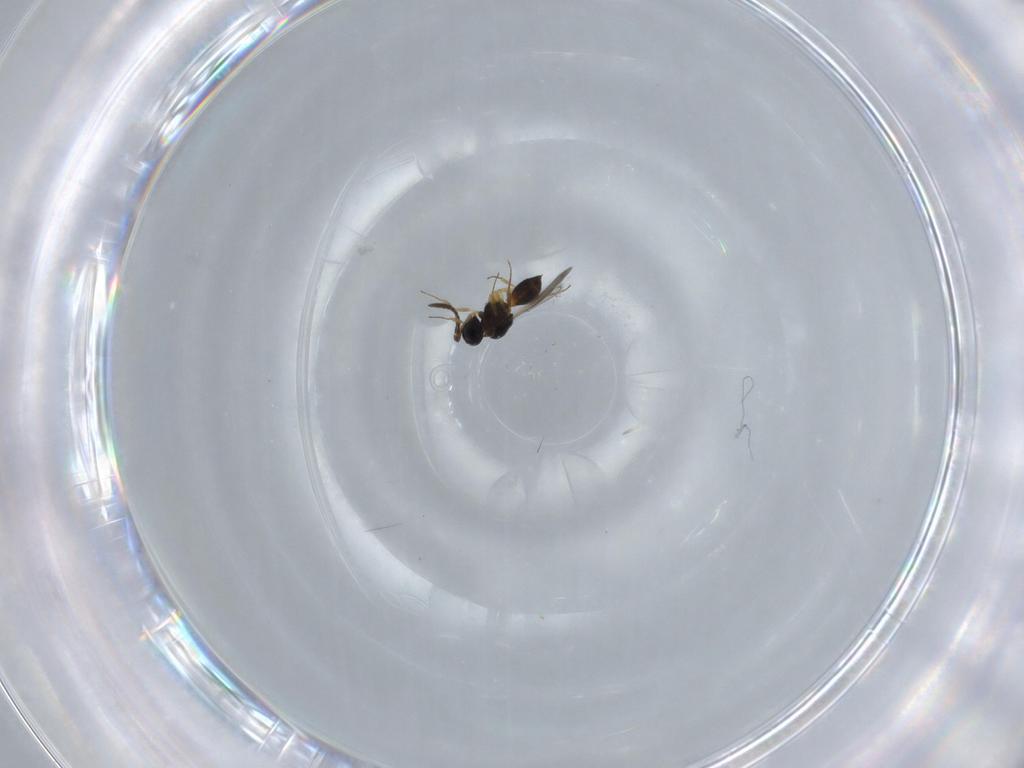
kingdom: Animalia
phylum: Arthropoda
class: Insecta
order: Hymenoptera
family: Scelionidae
